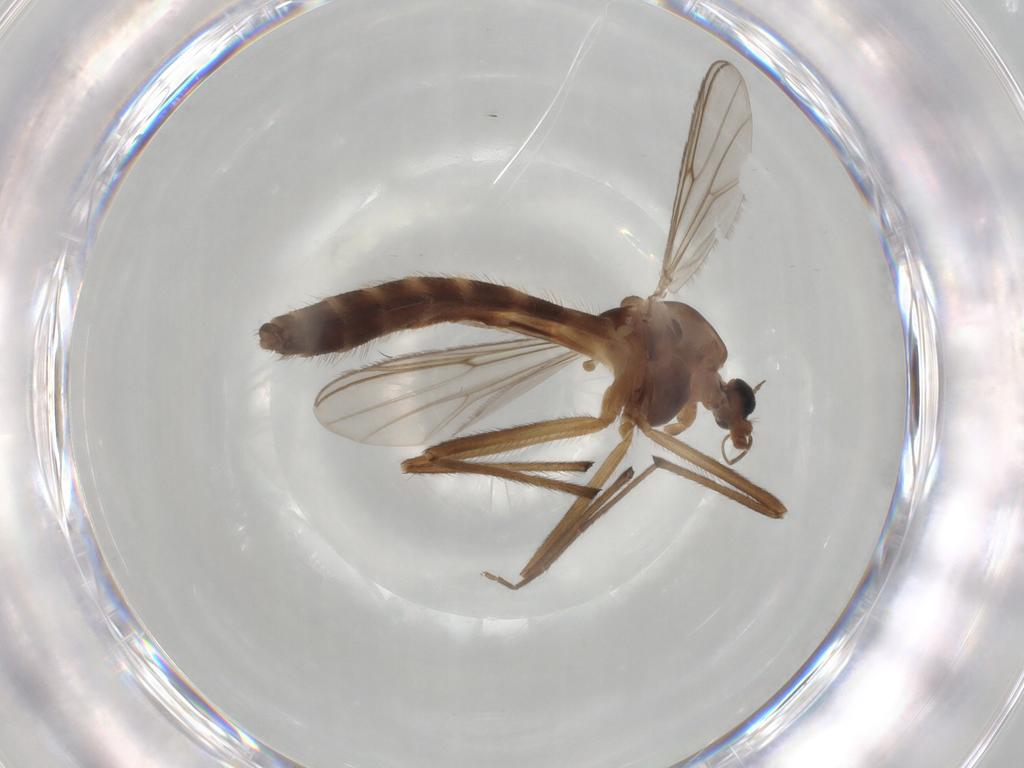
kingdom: Animalia
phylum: Arthropoda
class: Insecta
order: Diptera
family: Chironomidae
